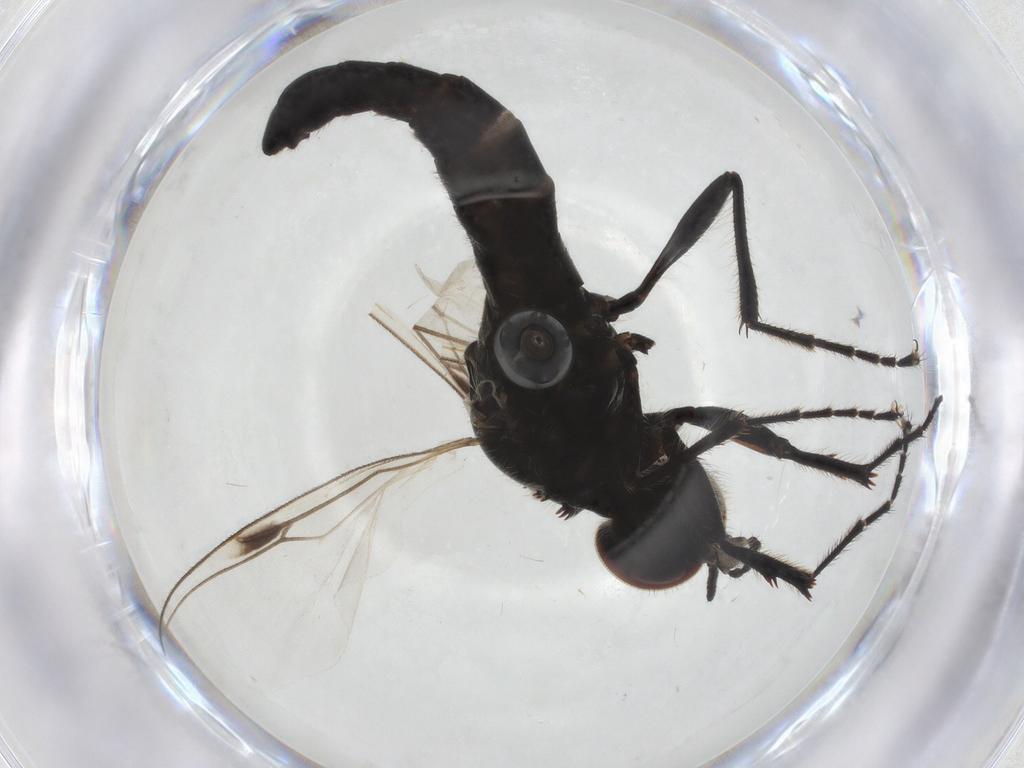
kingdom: Animalia
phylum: Arthropoda
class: Insecta
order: Diptera
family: Bibionidae
